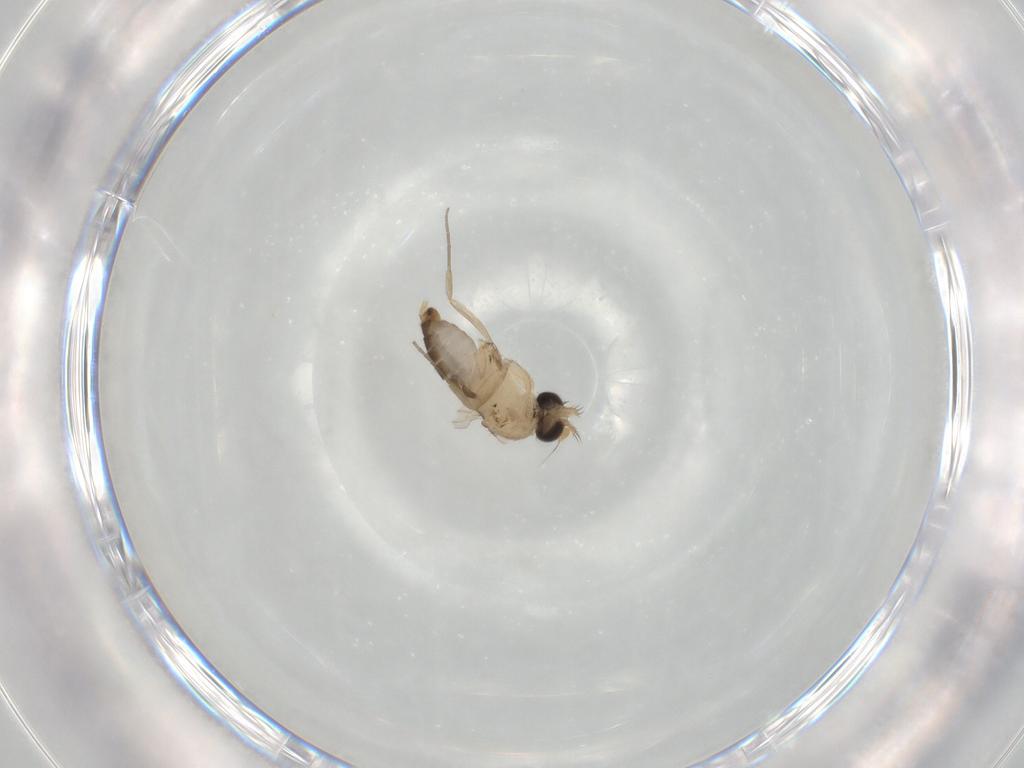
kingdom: Animalia
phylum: Arthropoda
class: Insecta
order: Diptera
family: Phoridae
